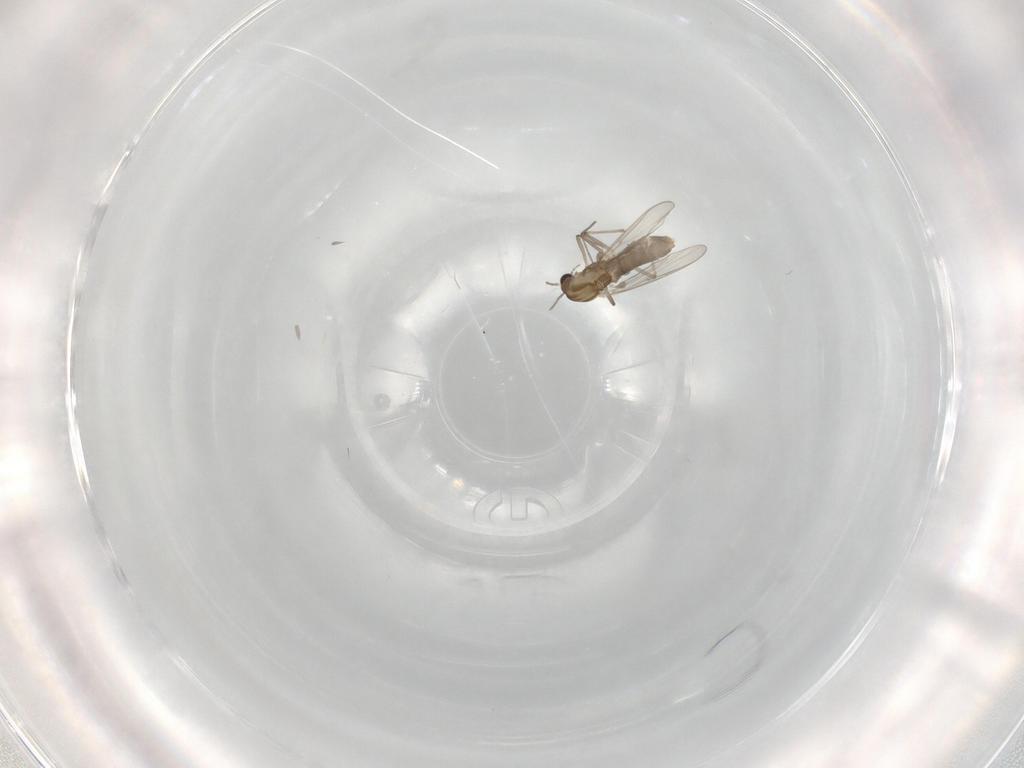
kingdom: Animalia
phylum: Arthropoda
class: Insecta
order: Diptera
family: Chironomidae
